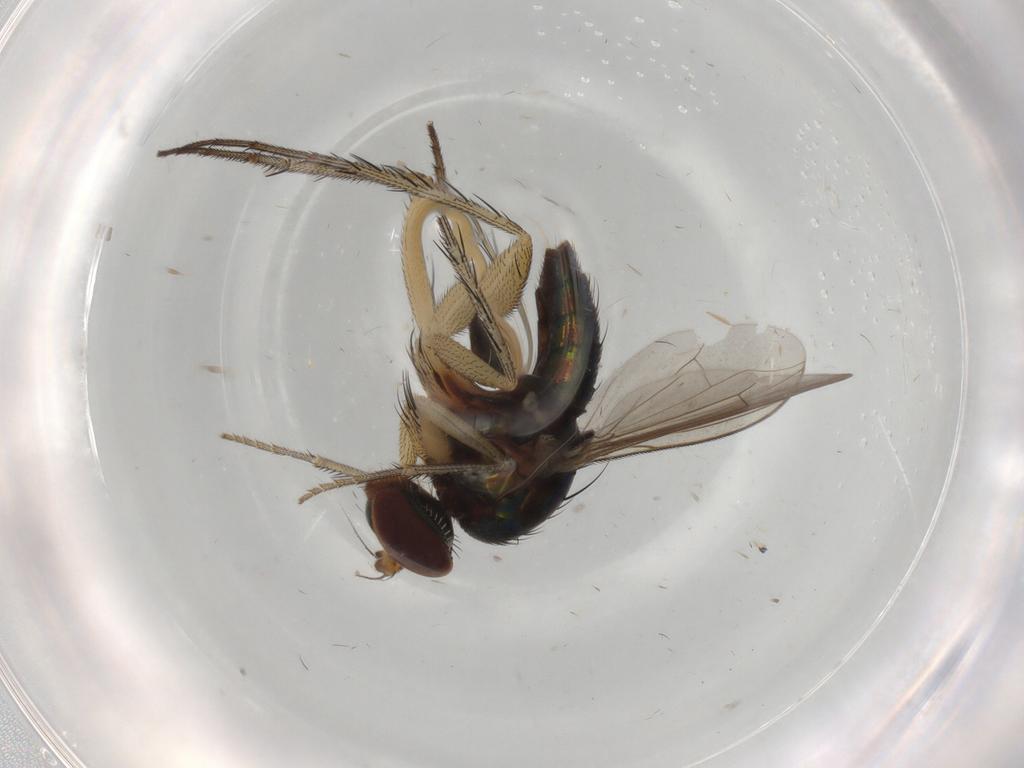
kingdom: Animalia
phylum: Arthropoda
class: Insecta
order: Diptera
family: Dolichopodidae
